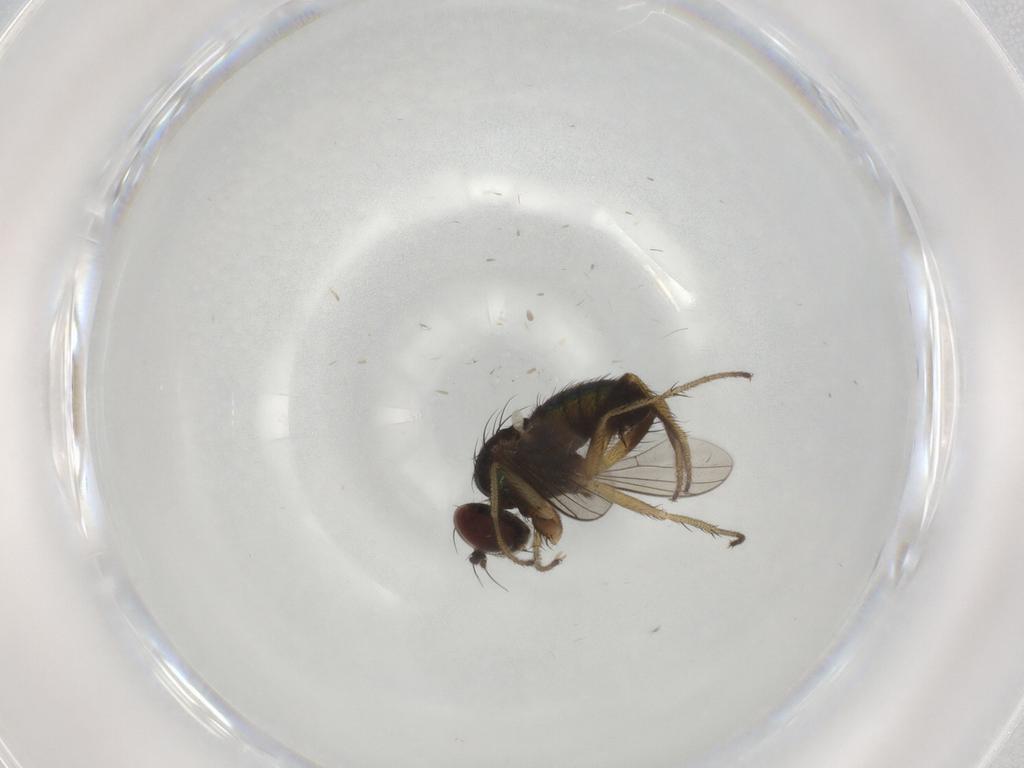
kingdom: Animalia
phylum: Arthropoda
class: Insecta
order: Diptera
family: Dolichopodidae
